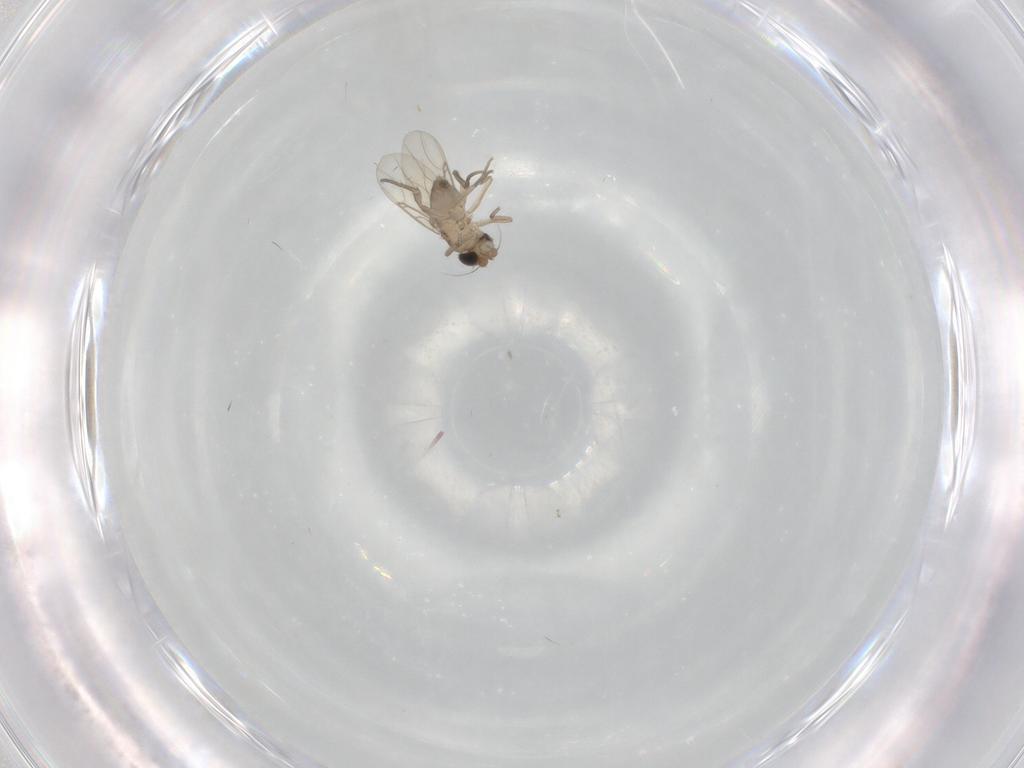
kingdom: Animalia
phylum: Arthropoda
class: Insecta
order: Diptera
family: Phoridae
